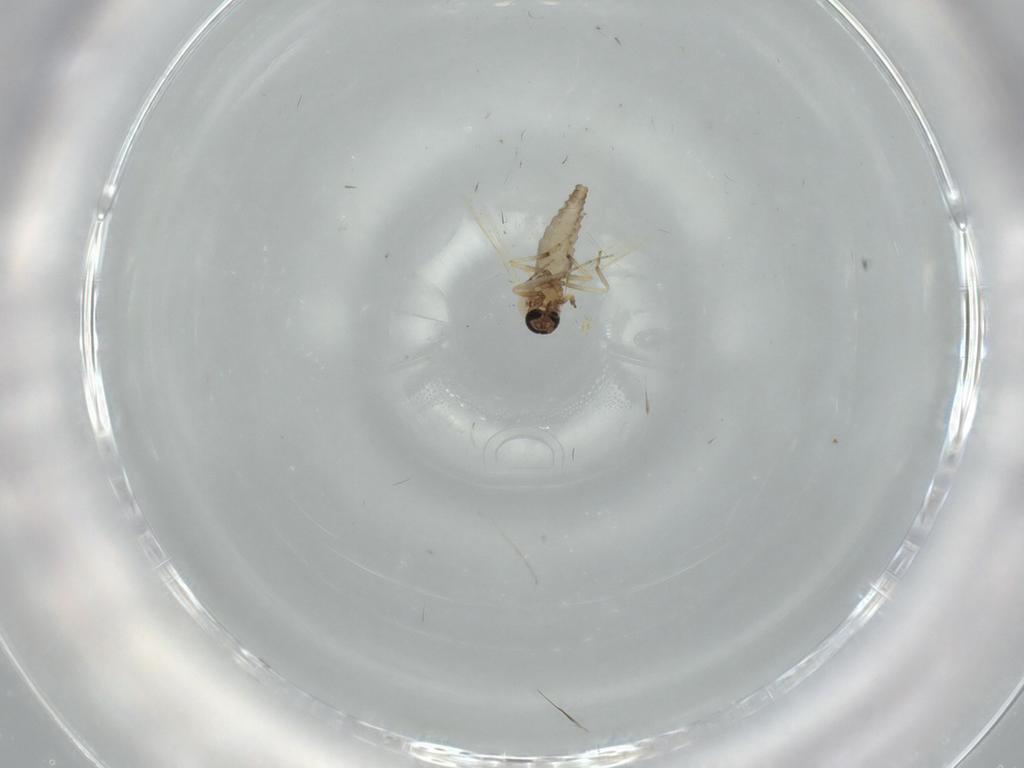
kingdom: Animalia
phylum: Arthropoda
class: Insecta
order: Diptera
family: Ceratopogonidae
